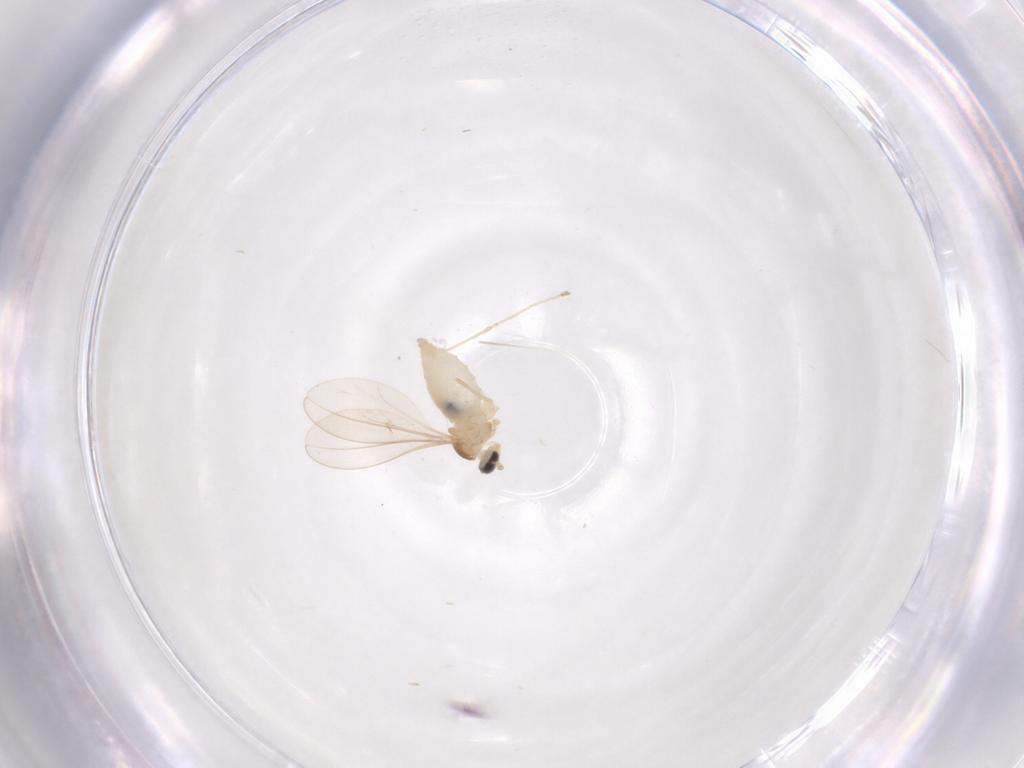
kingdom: Animalia
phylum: Arthropoda
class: Insecta
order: Diptera
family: Cecidomyiidae
